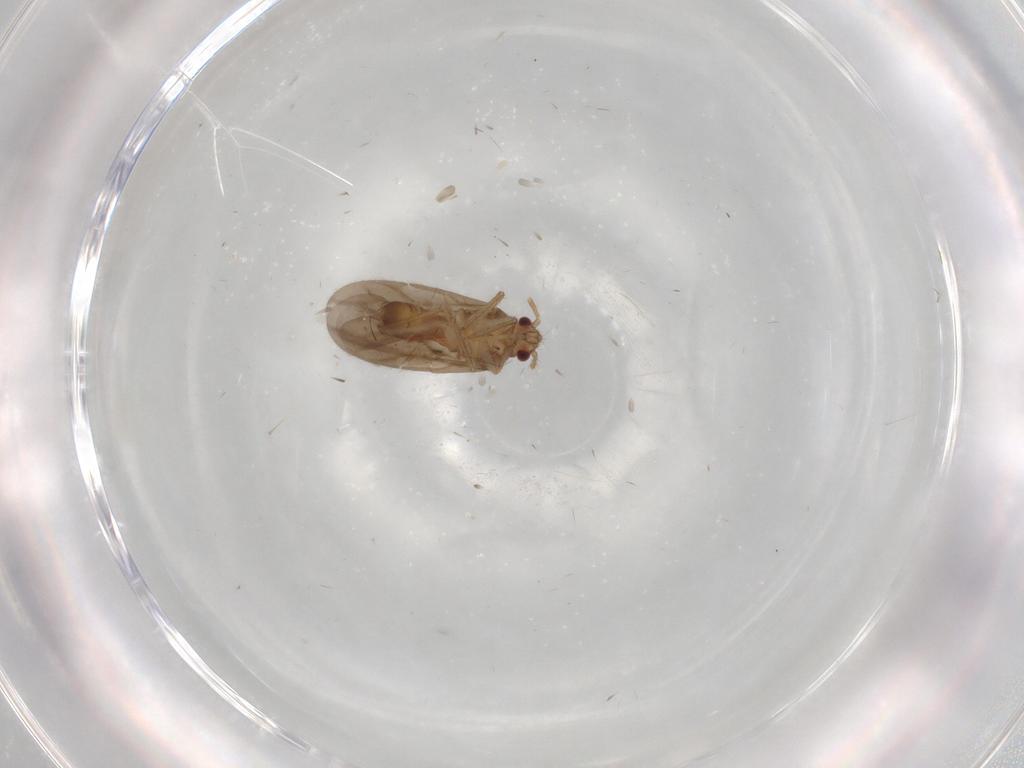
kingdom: Animalia
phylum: Arthropoda
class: Insecta
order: Hemiptera
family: Ceratocombidae
